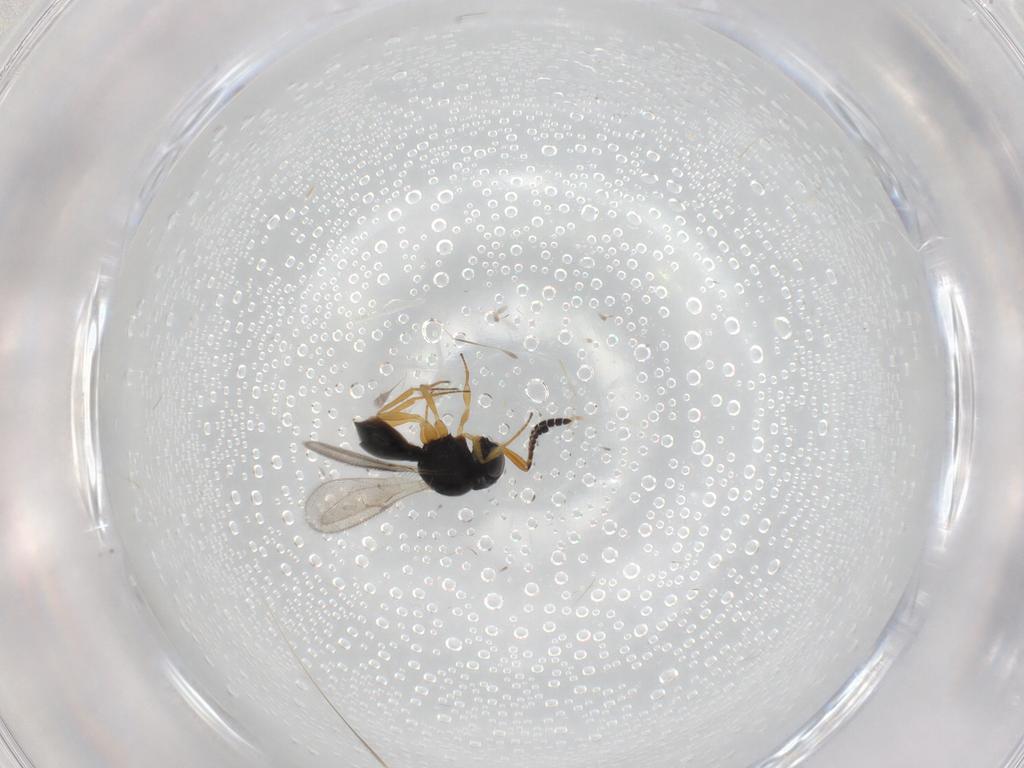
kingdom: Animalia
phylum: Arthropoda
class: Insecta
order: Hymenoptera
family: Scelionidae
